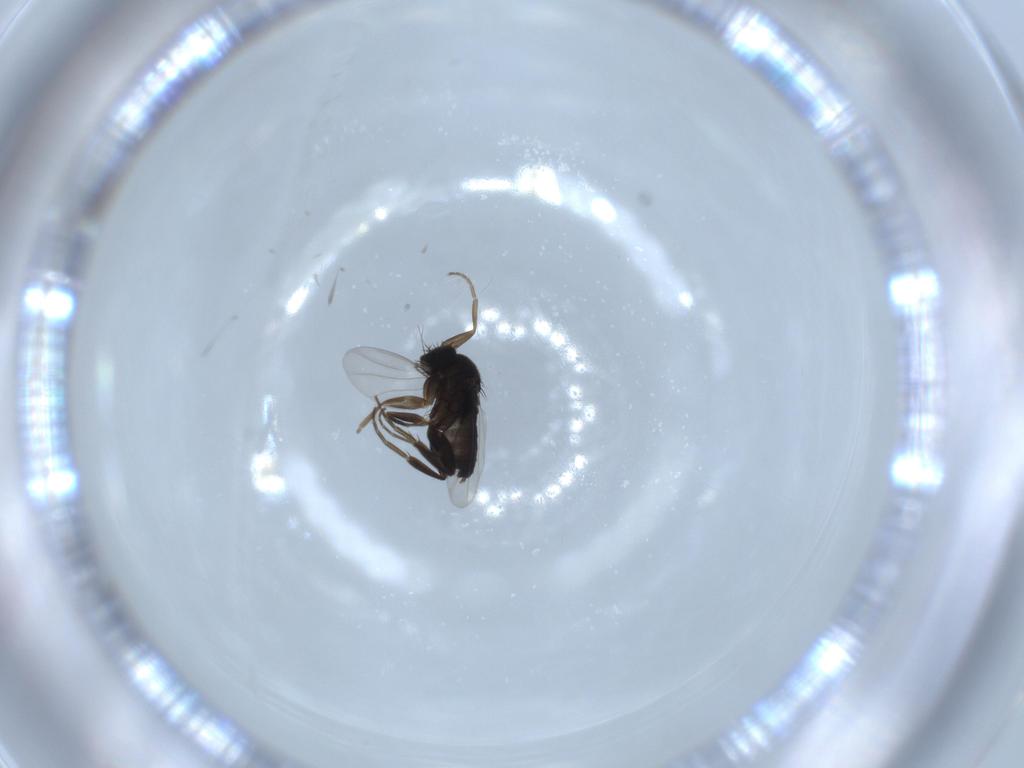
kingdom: Animalia
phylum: Arthropoda
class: Insecta
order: Diptera
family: Phoridae
